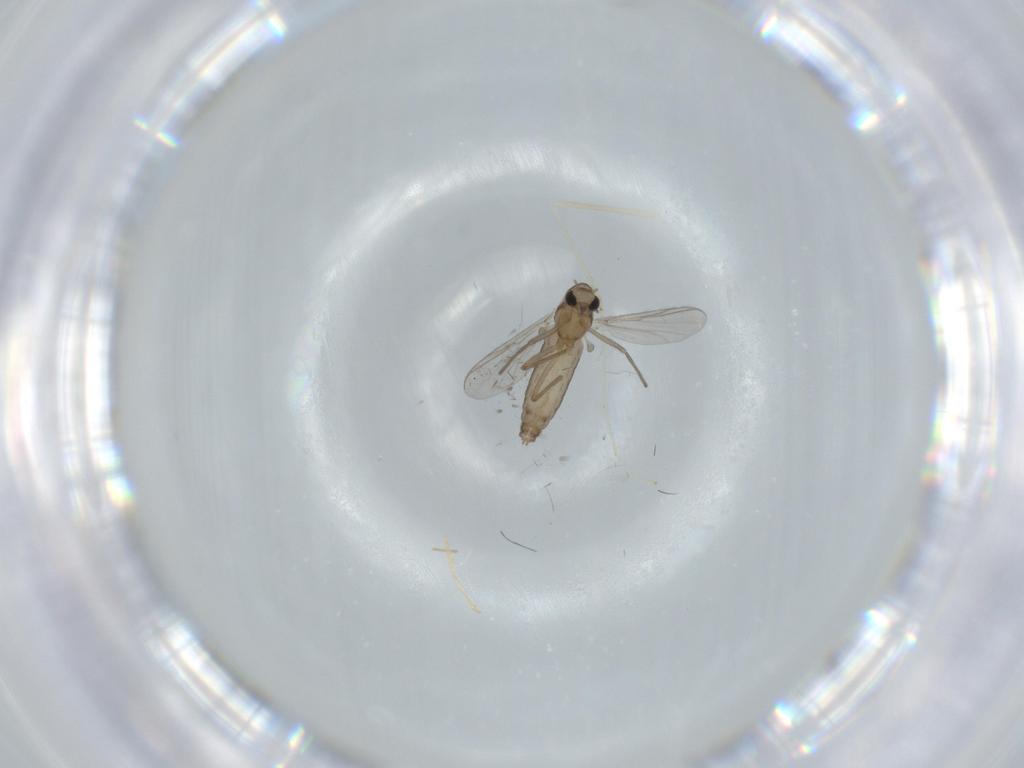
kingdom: Animalia
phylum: Arthropoda
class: Insecta
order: Diptera
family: Chironomidae
